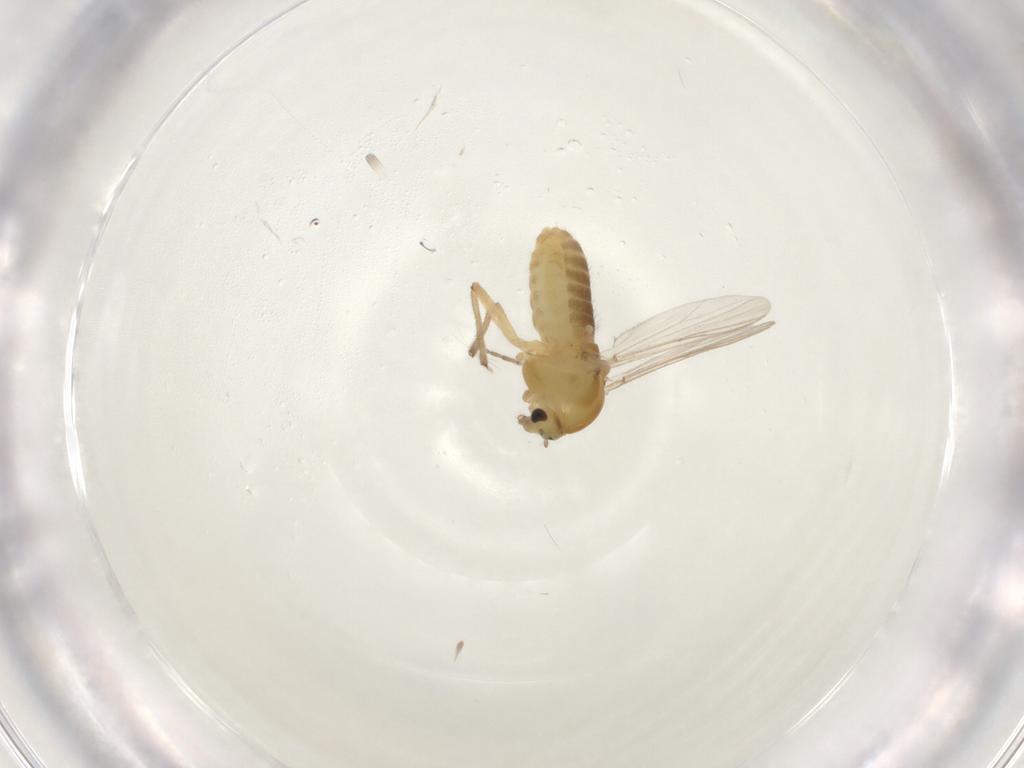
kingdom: Animalia
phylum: Arthropoda
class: Insecta
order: Diptera
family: Chironomidae
